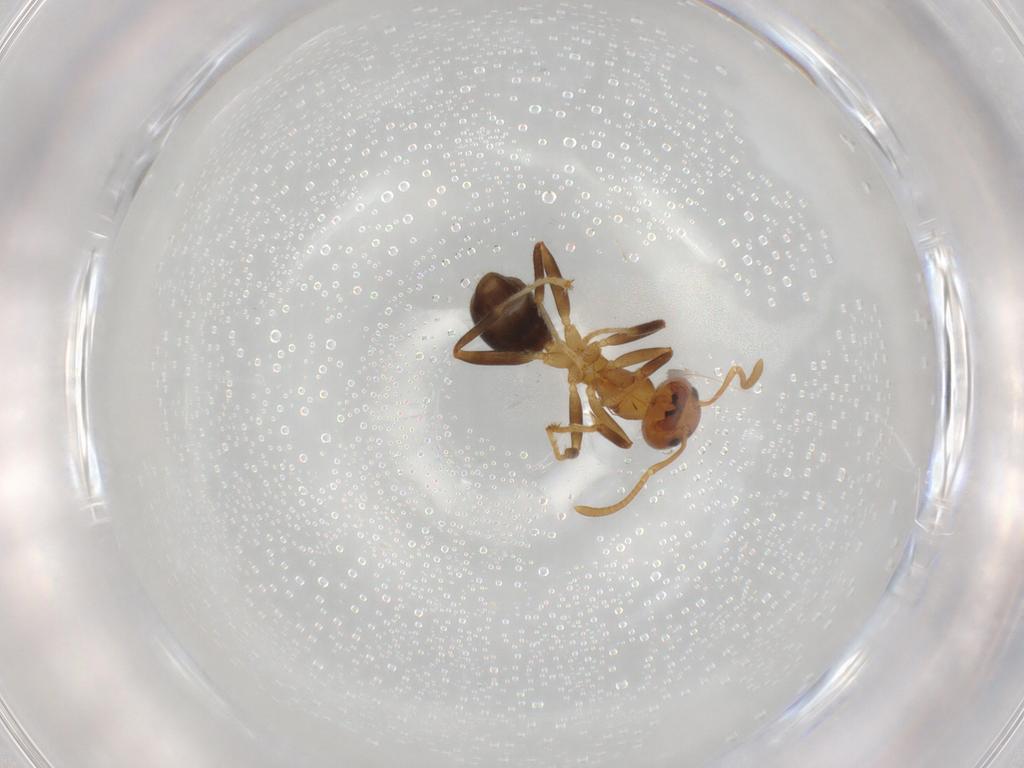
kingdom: Animalia
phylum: Arthropoda
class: Insecta
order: Hymenoptera
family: Formicidae
